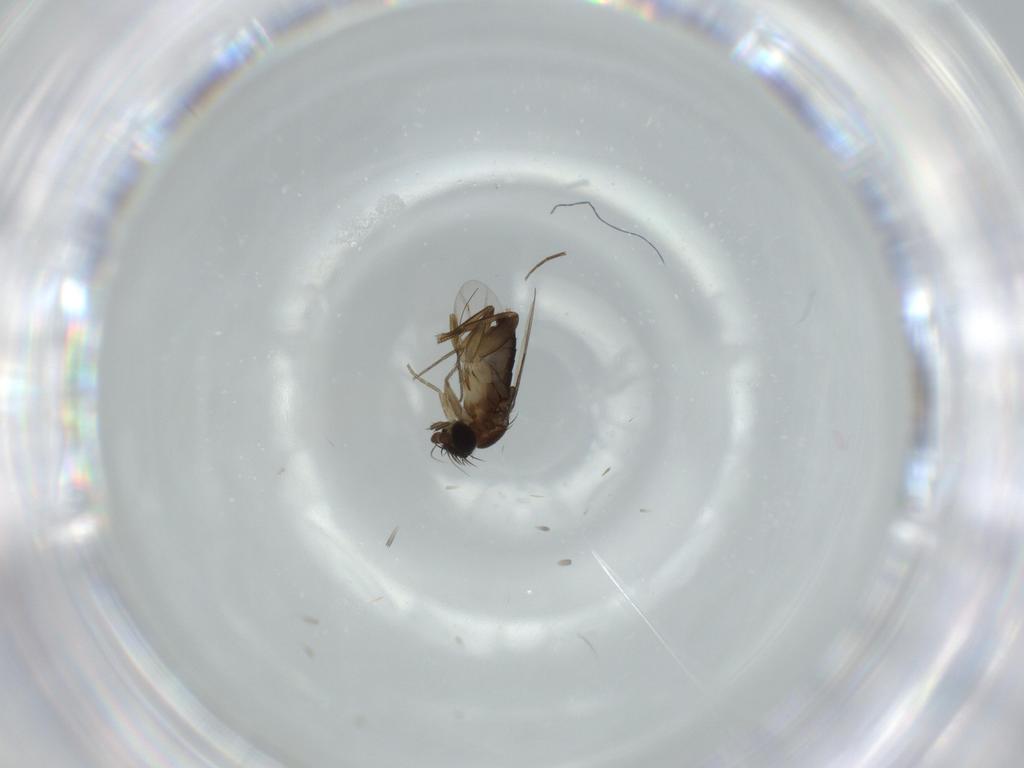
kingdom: Animalia
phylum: Arthropoda
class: Insecta
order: Diptera
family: Phoridae
